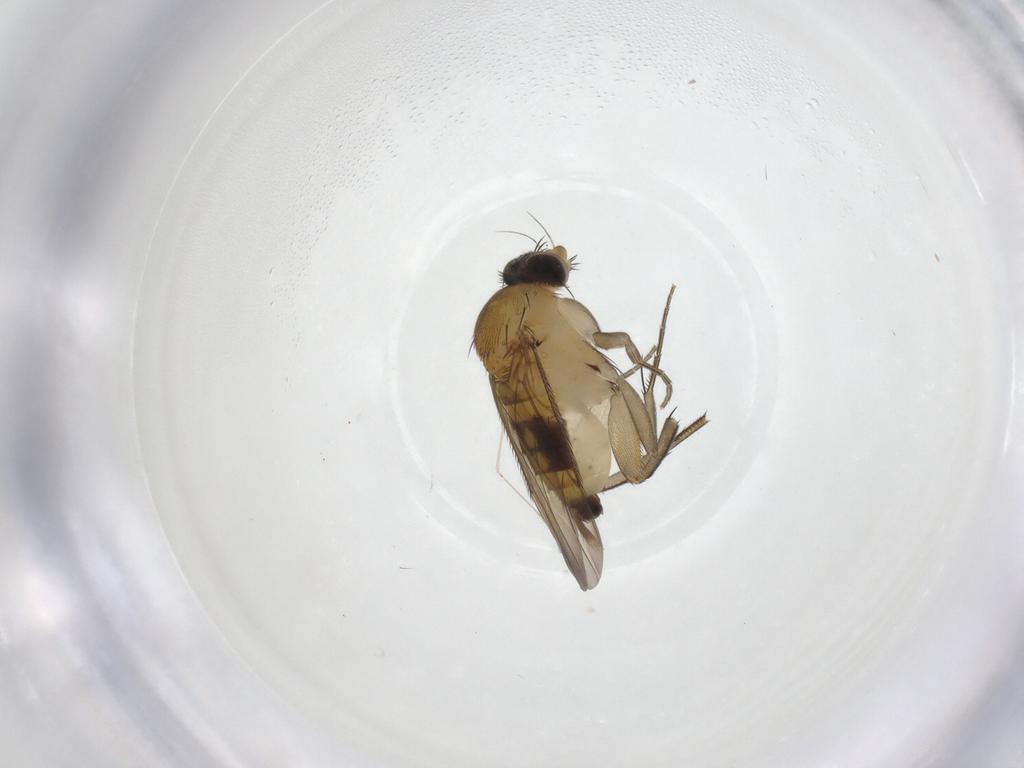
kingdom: Animalia
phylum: Arthropoda
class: Insecta
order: Diptera
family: Phoridae
